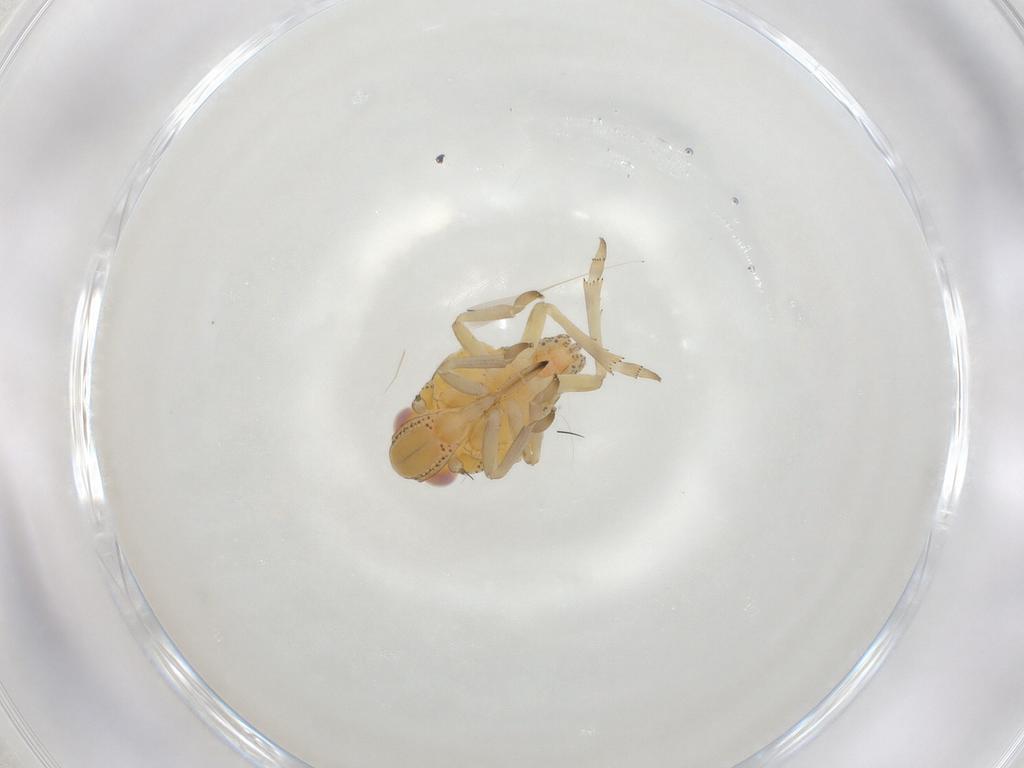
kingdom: Animalia
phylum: Arthropoda
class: Insecta
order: Hemiptera
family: Tropiduchidae
